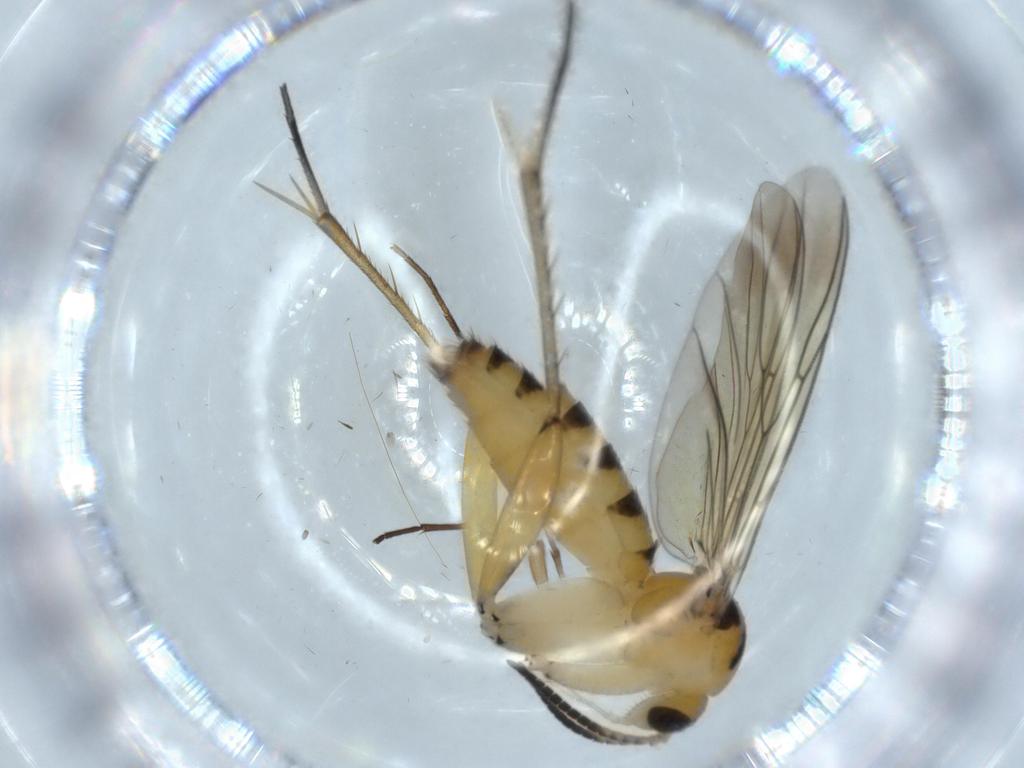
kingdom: Animalia
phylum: Arthropoda
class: Insecta
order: Diptera
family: Mycetophilidae
